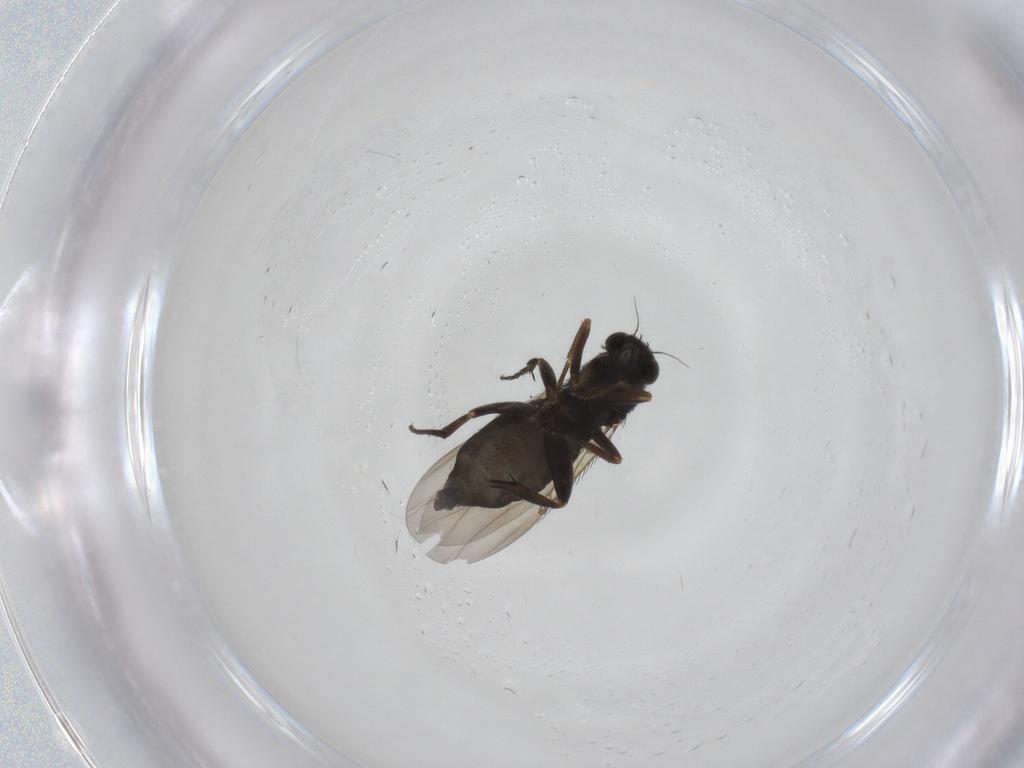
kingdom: Animalia
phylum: Arthropoda
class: Insecta
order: Diptera
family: Phoridae
